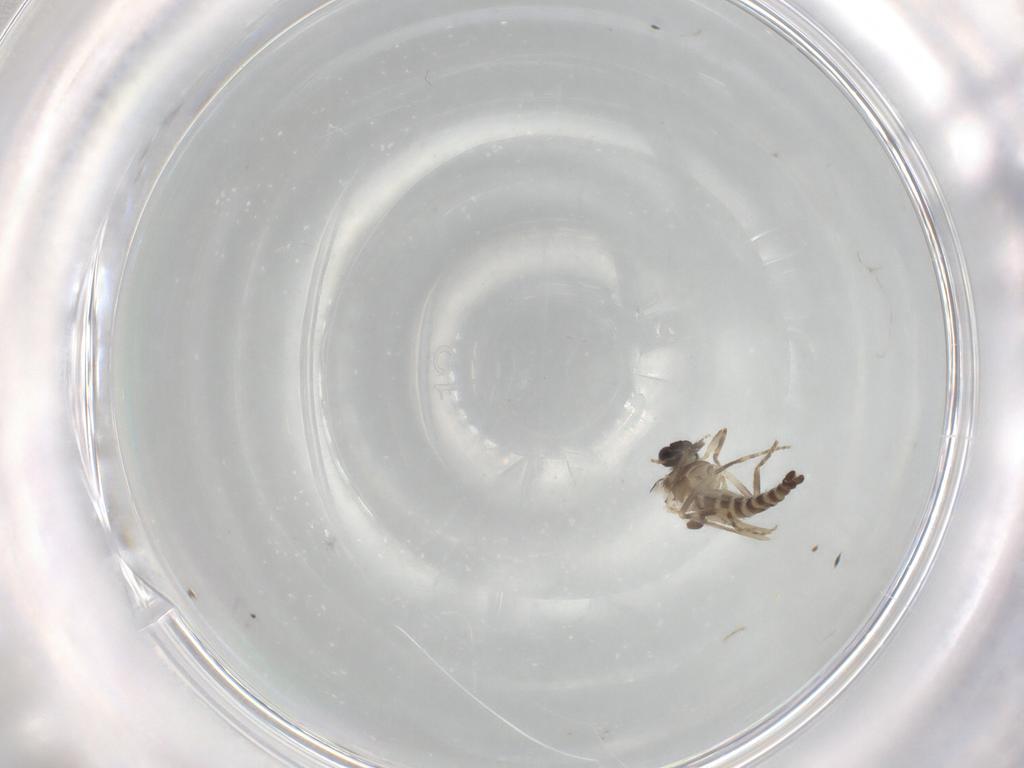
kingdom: Animalia
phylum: Arthropoda
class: Insecta
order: Diptera
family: Ceratopogonidae
